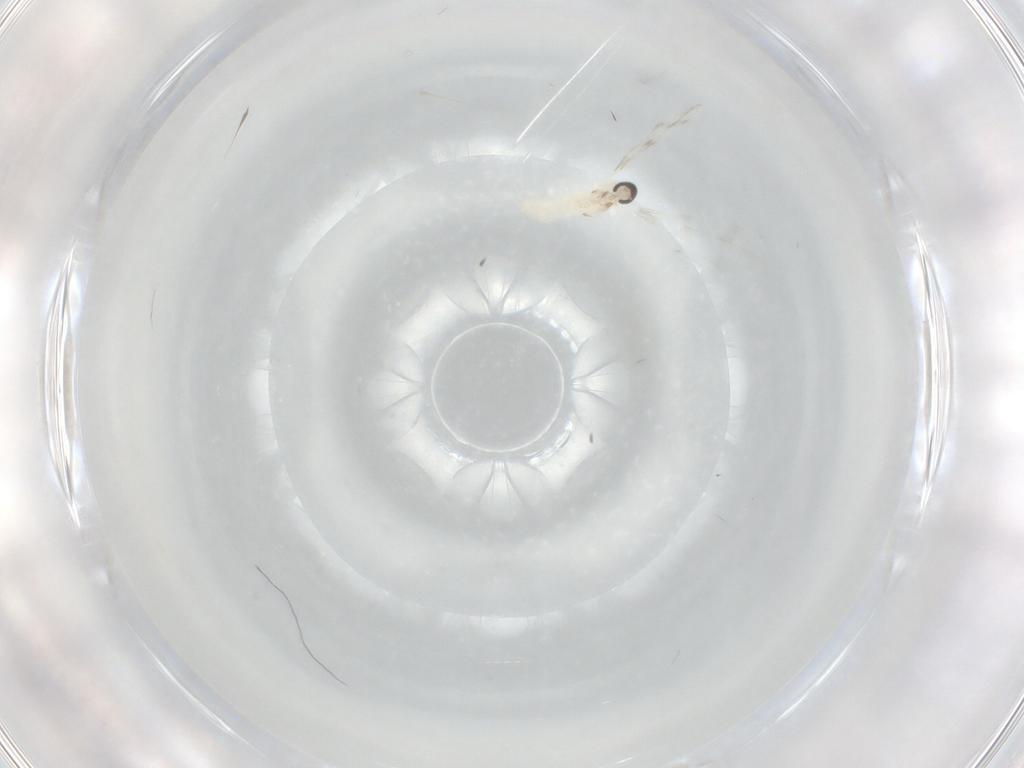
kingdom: Animalia
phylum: Arthropoda
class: Insecta
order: Diptera
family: Cecidomyiidae
